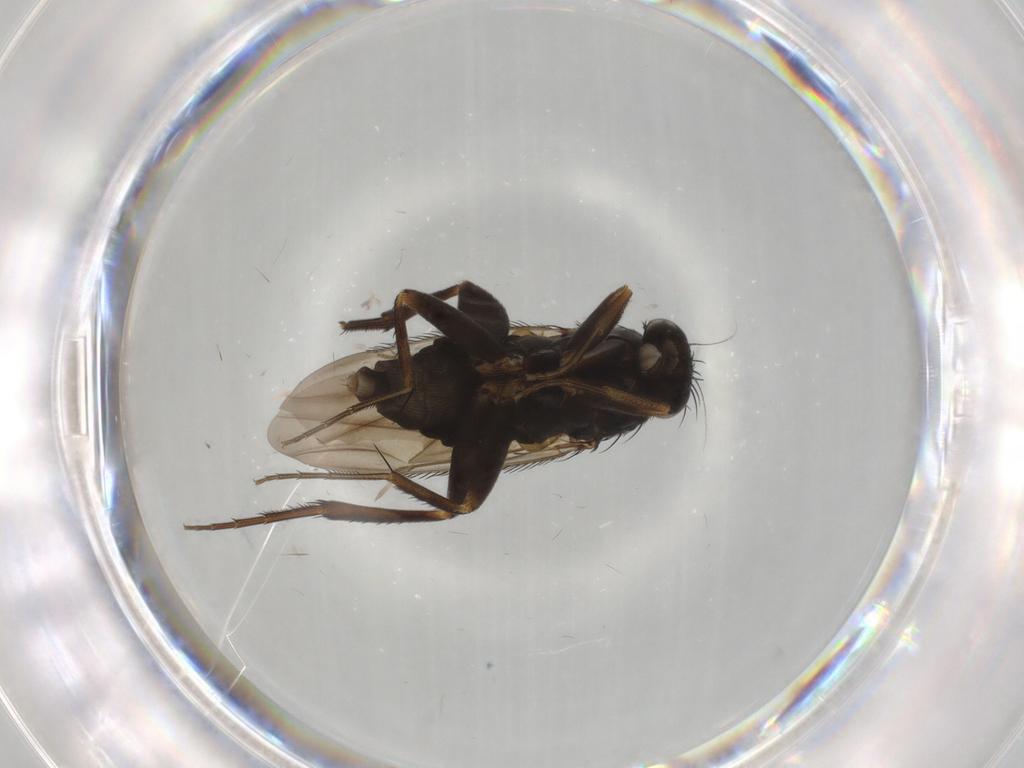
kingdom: Animalia
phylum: Arthropoda
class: Insecta
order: Diptera
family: Phoridae
